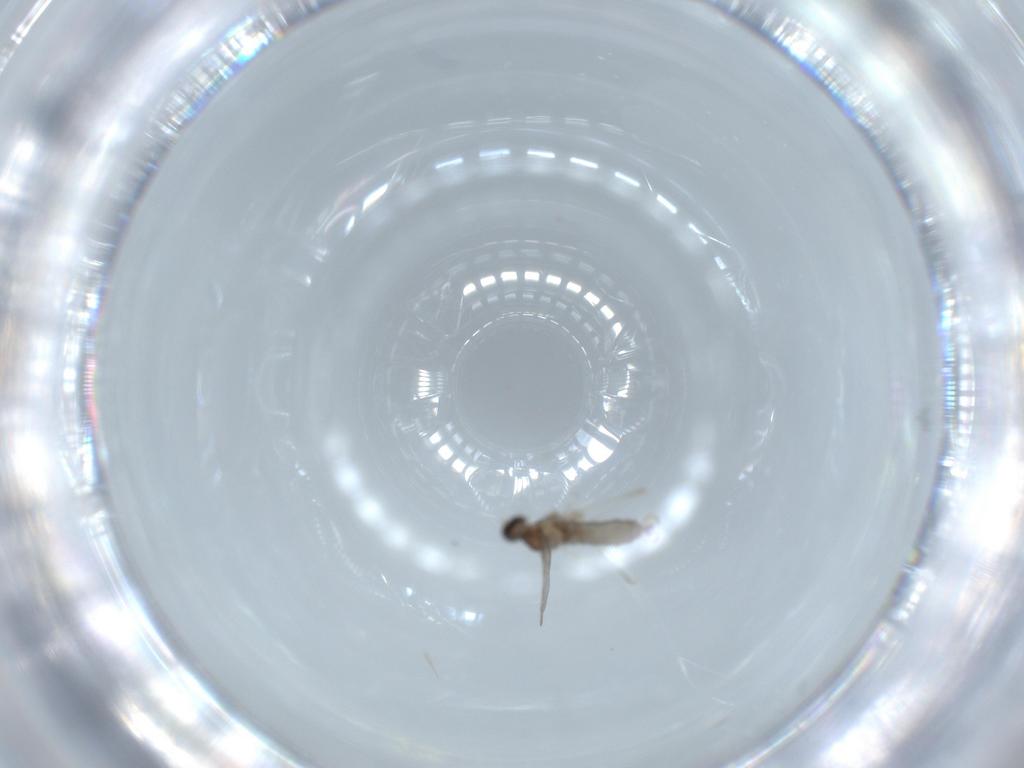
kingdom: Animalia
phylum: Arthropoda
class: Insecta
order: Diptera
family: Cecidomyiidae
